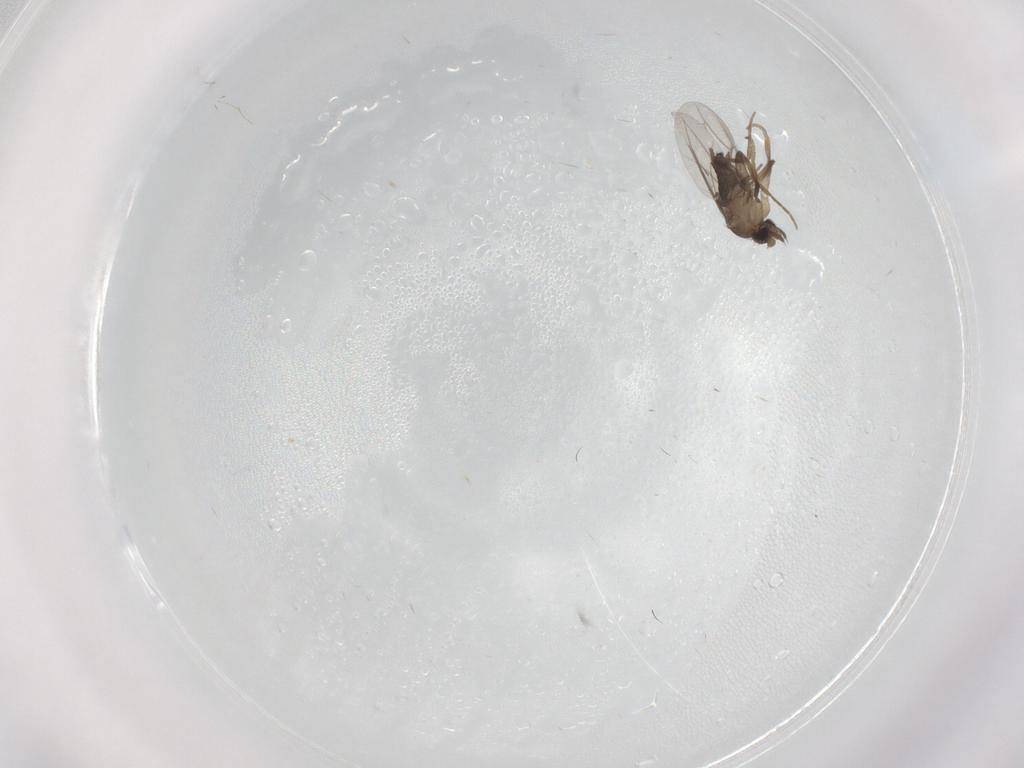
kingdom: Animalia
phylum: Arthropoda
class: Insecta
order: Diptera
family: Phoridae
